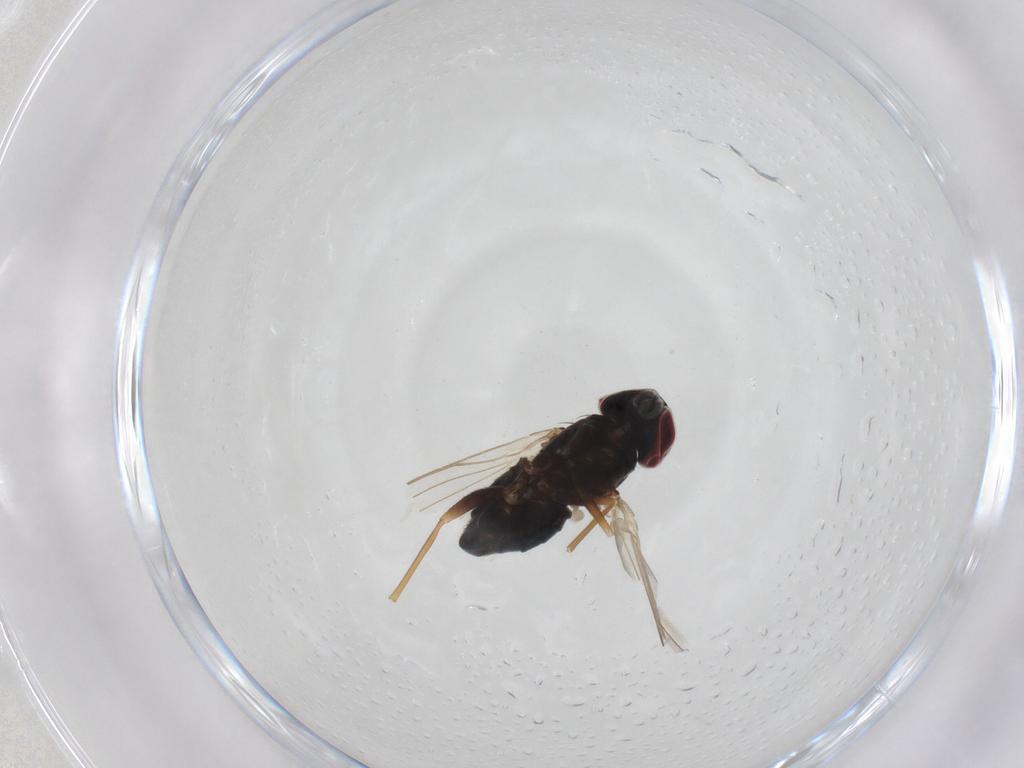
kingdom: Animalia
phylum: Arthropoda
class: Insecta
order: Diptera
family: Dolichopodidae
